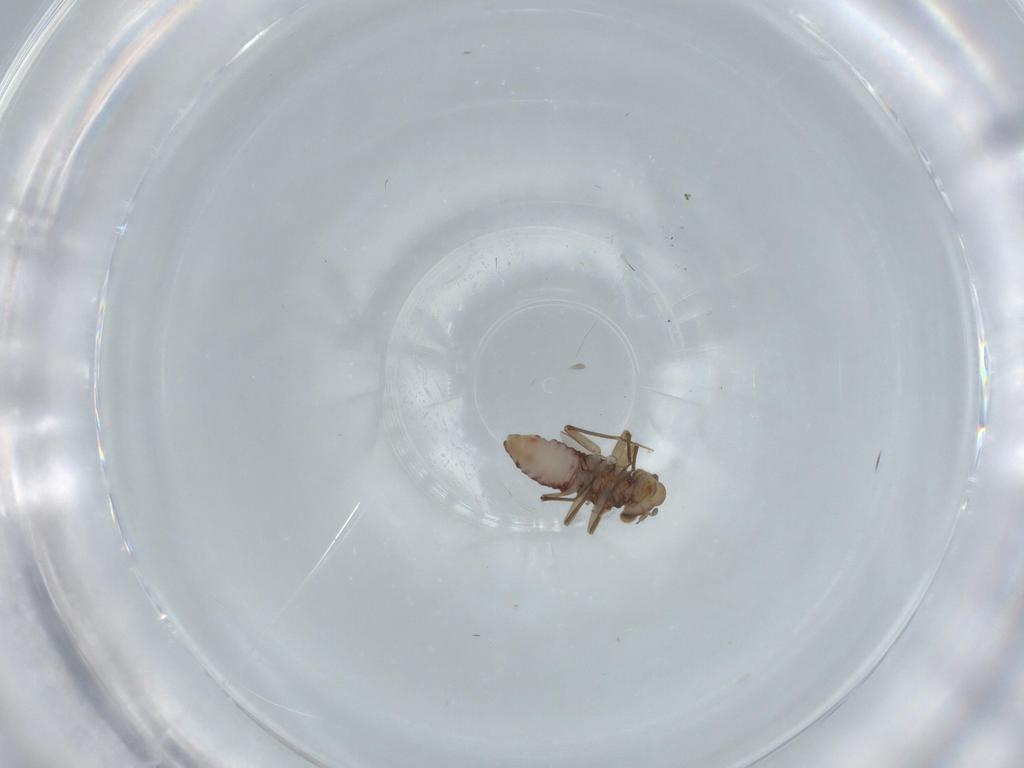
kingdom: Animalia
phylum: Arthropoda
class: Insecta
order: Psocodea
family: Lepidopsocidae
